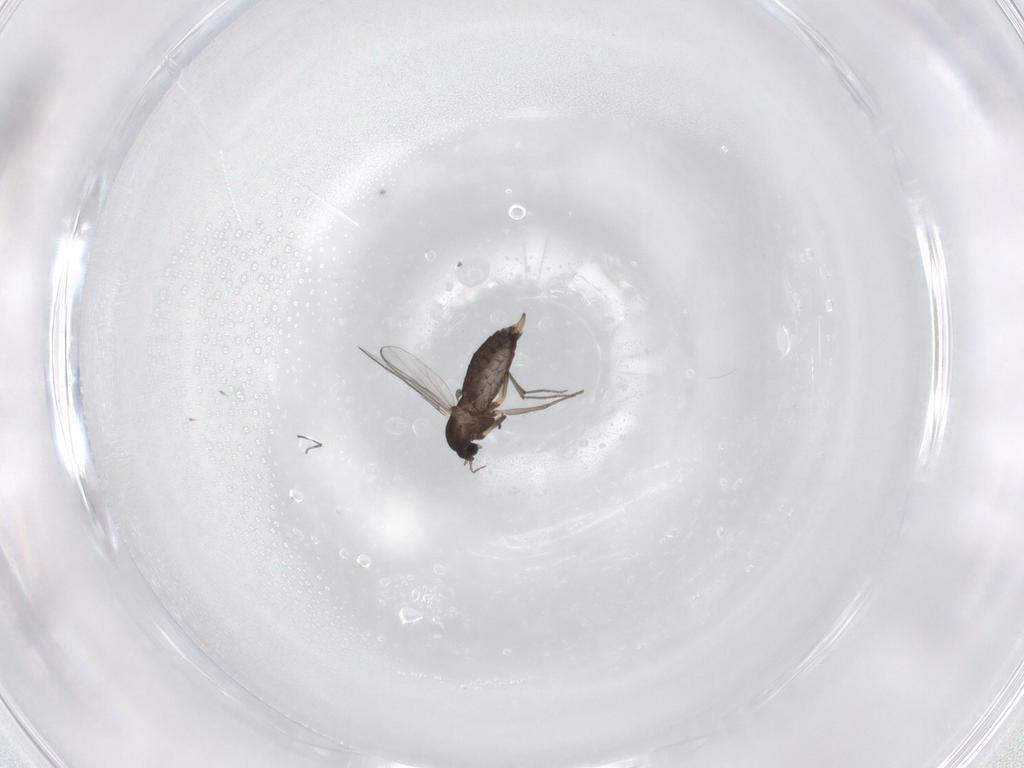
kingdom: Animalia
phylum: Arthropoda
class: Insecta
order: Diptera
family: Chironomidae
